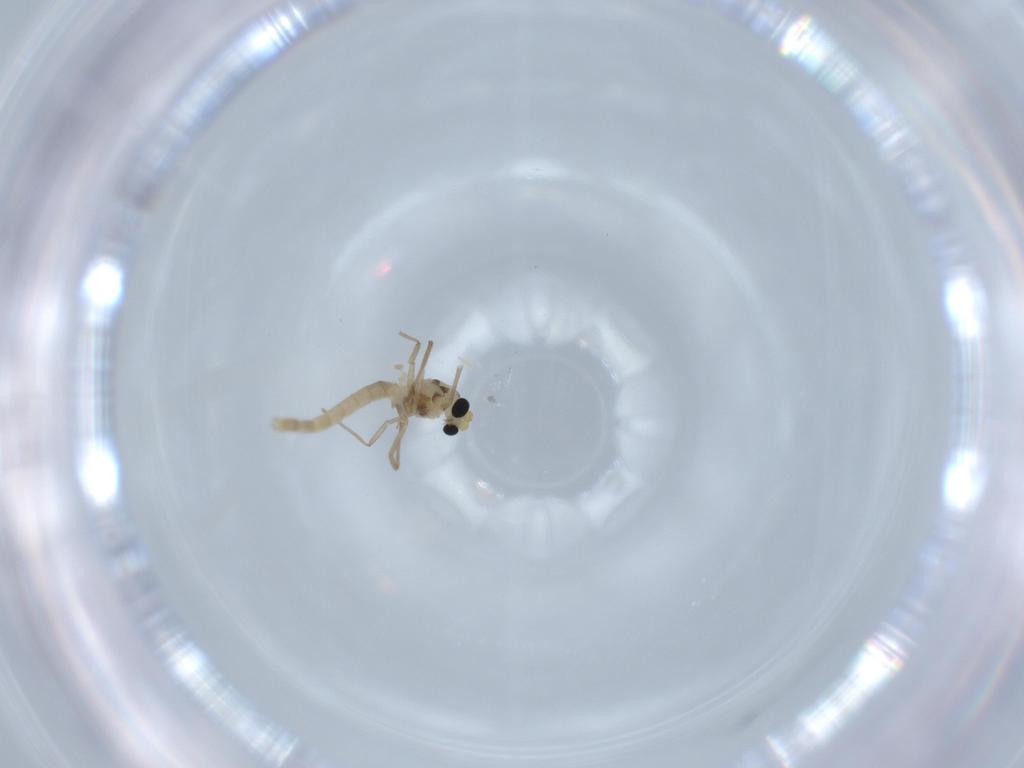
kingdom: Animalia
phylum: Arthropoda
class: Insecta
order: Diptera
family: Chironomidae
